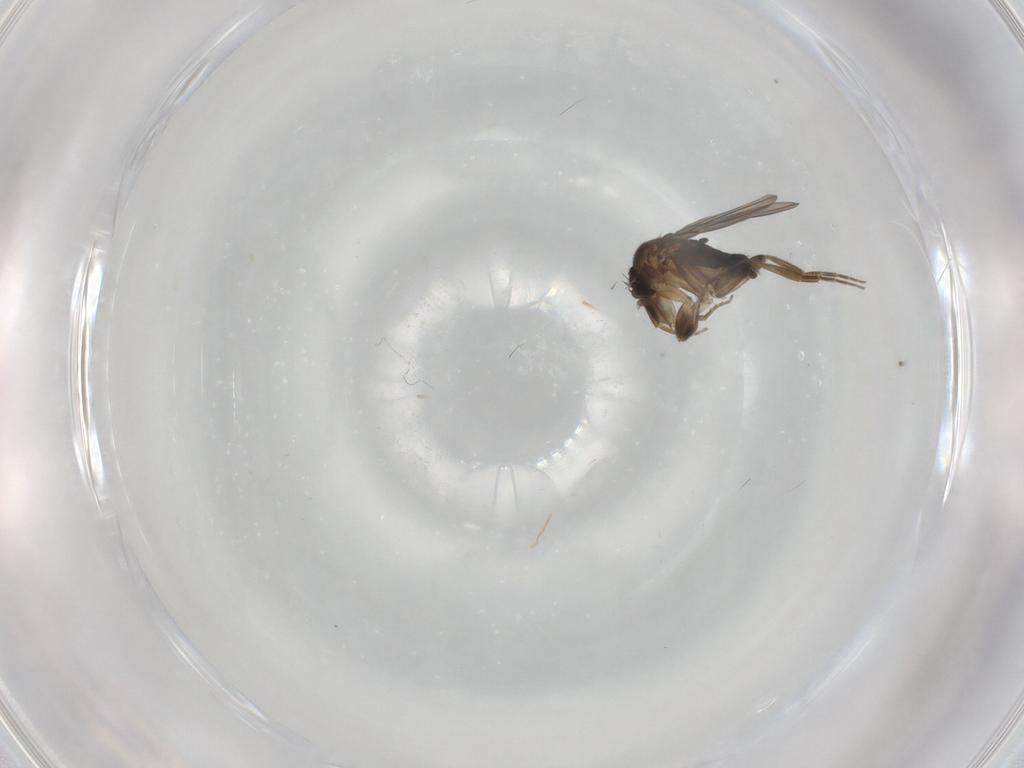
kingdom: Animalia
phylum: Arthropoda
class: Insecta
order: Diptera
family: Phoridae
